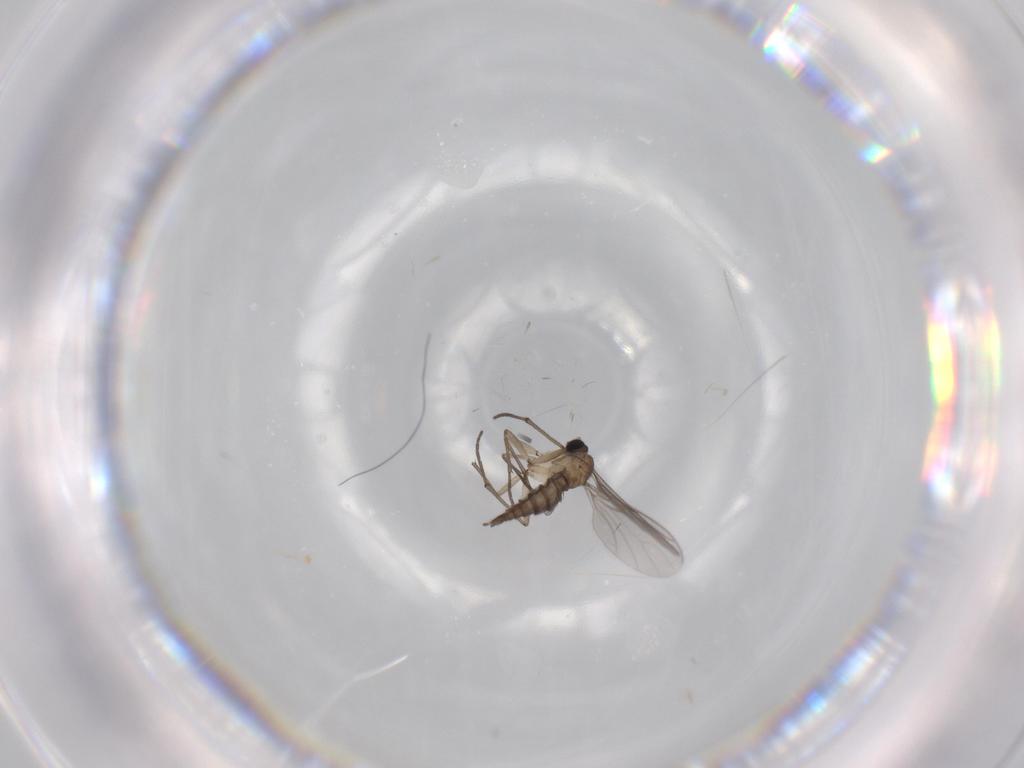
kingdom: Animalia
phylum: Arthropoda
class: Insecta
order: Diptera
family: Ceratopogonidae
